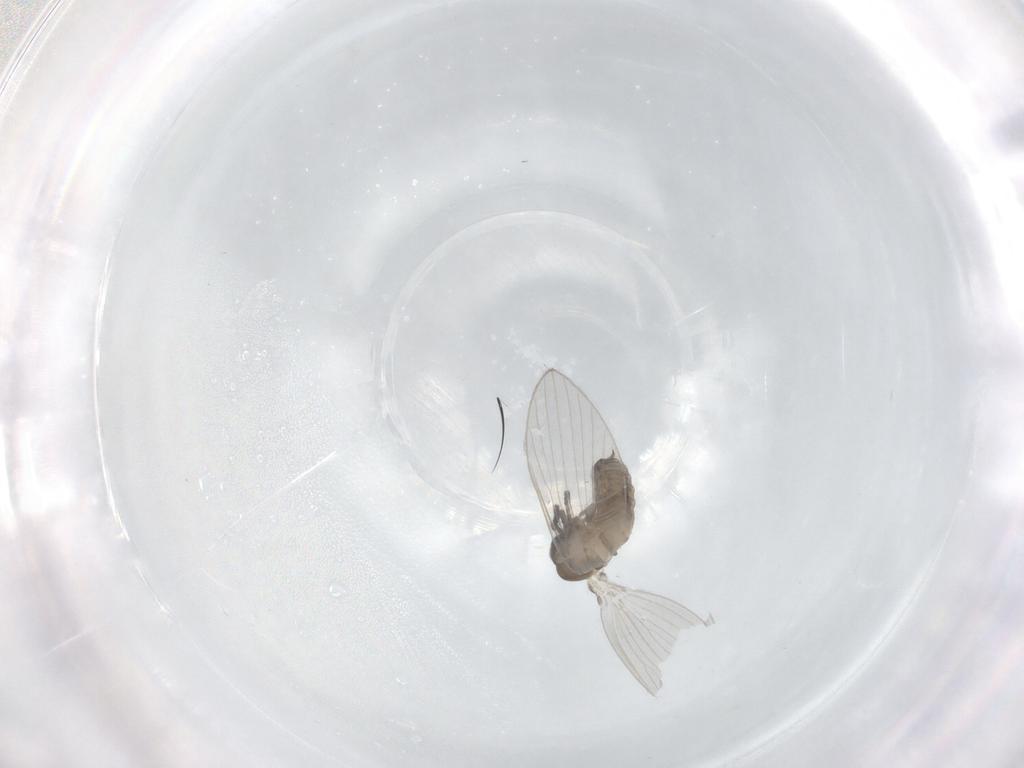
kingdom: Animalia
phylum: Arthropoda
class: Insecta
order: Diptera
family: Psychodidae
